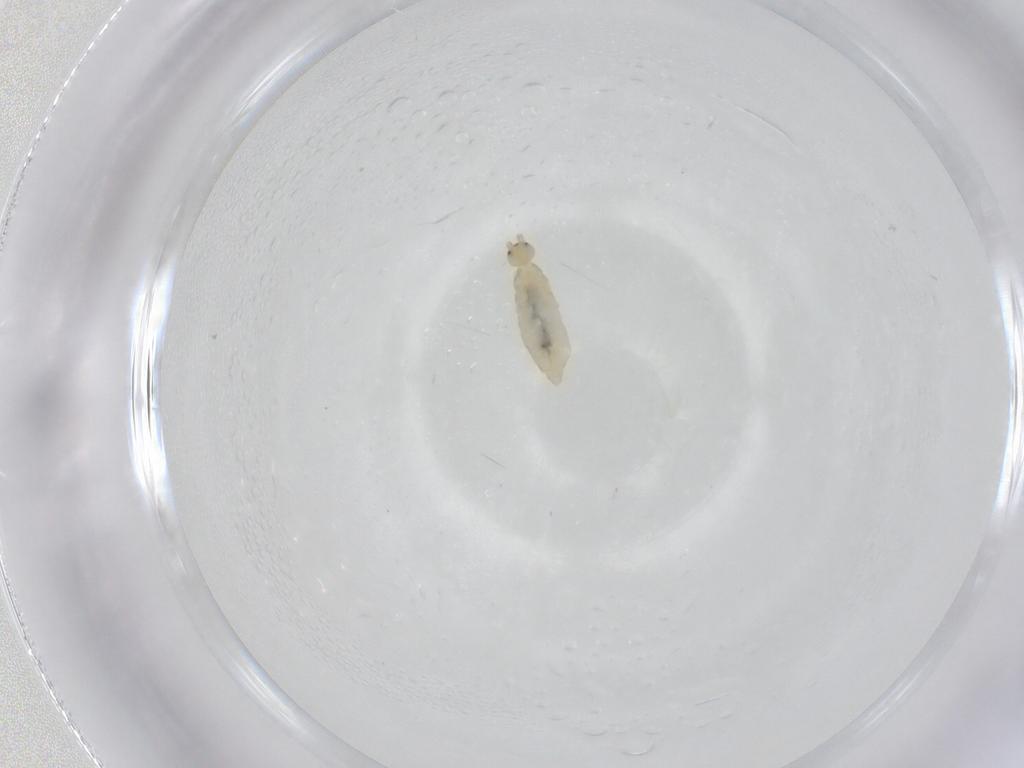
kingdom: Animalia
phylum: Arthropoda
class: Collembola
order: Entomobryomorpha
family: Entomobryidae
